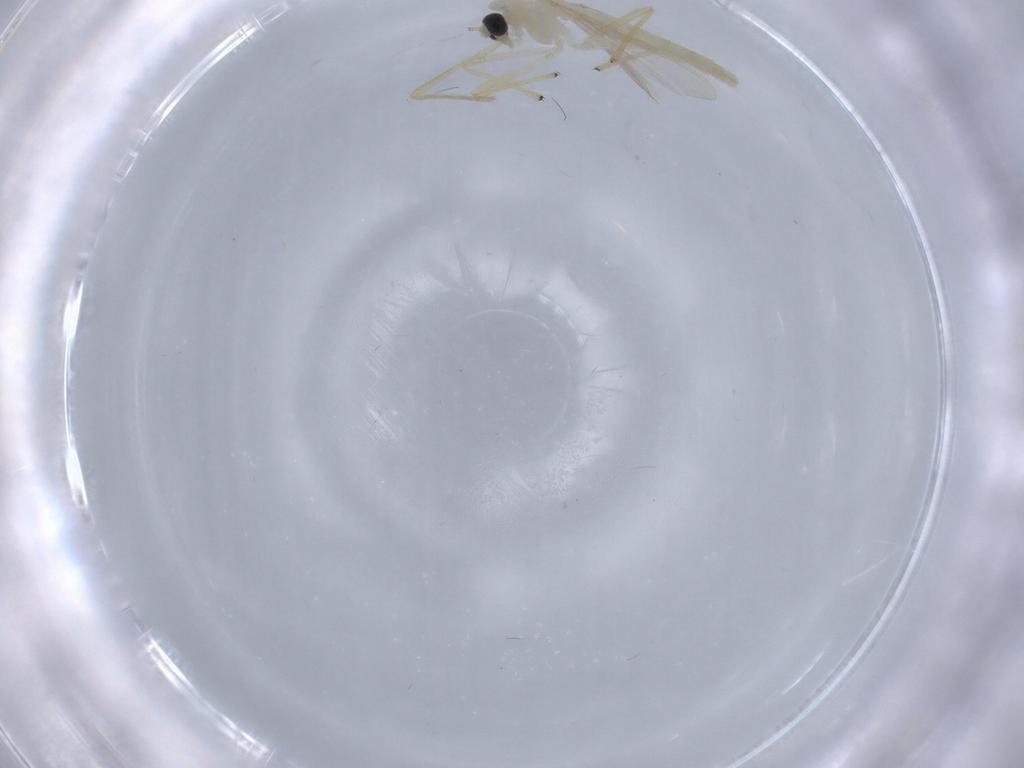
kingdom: Animalia
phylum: Arthropoda
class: Insecta
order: Diptera
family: Chironomidae
